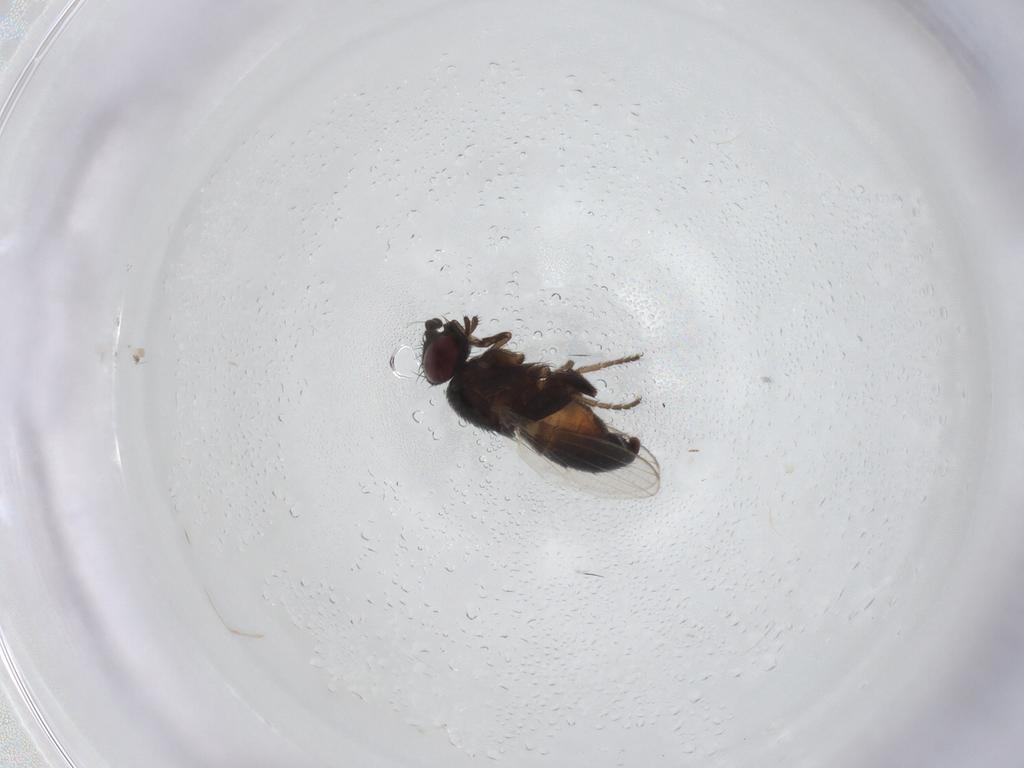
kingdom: Animalia
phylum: Arthropoda
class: Insecta
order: Diptera
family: Milichiidae
